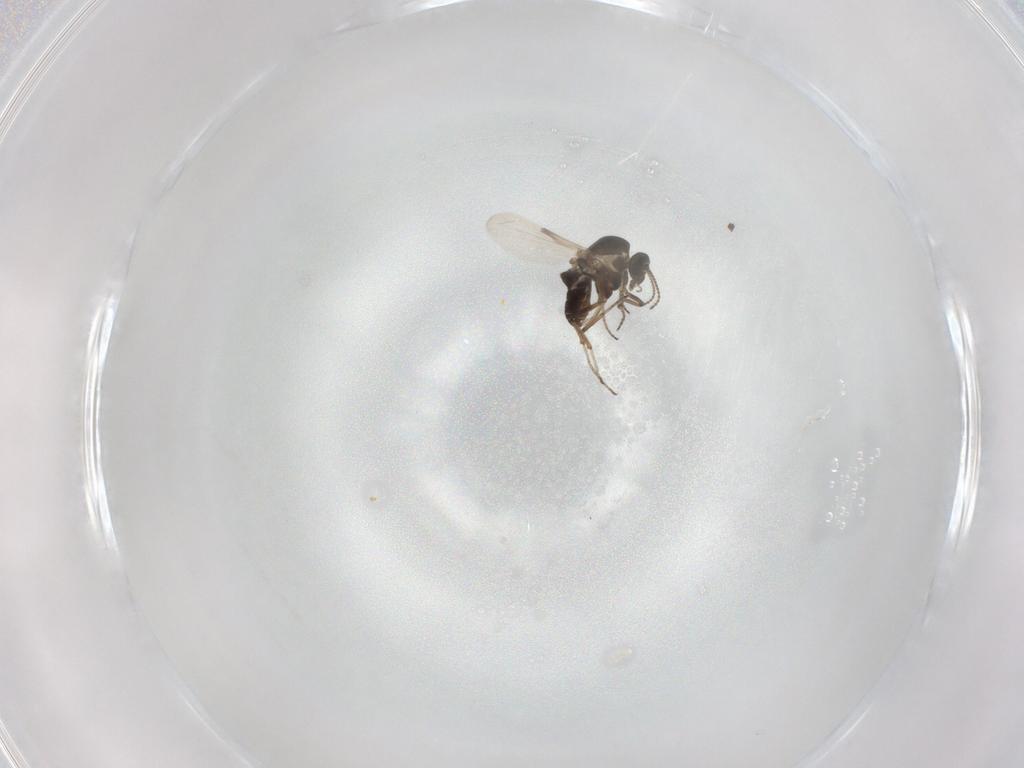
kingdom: Animalia
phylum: Arthropoda
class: Insecta
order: Diptera
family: Ceratopogonidae
